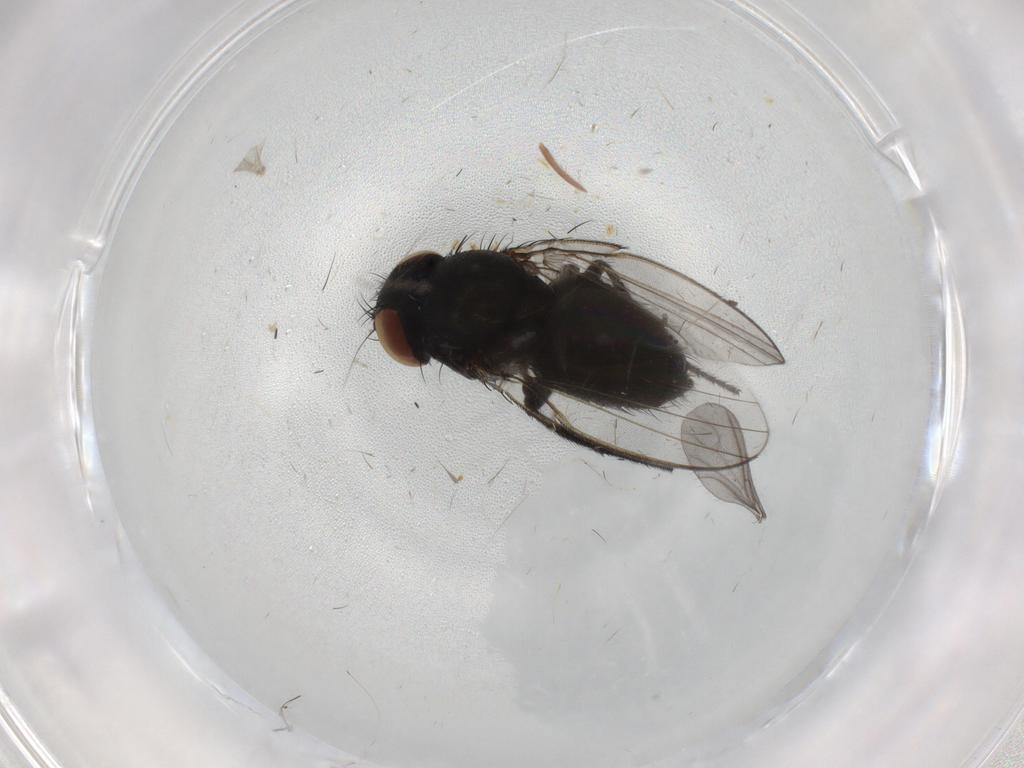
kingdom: Animalia
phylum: Arthropoda
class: Insecta
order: Diptera
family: Milichiidae
